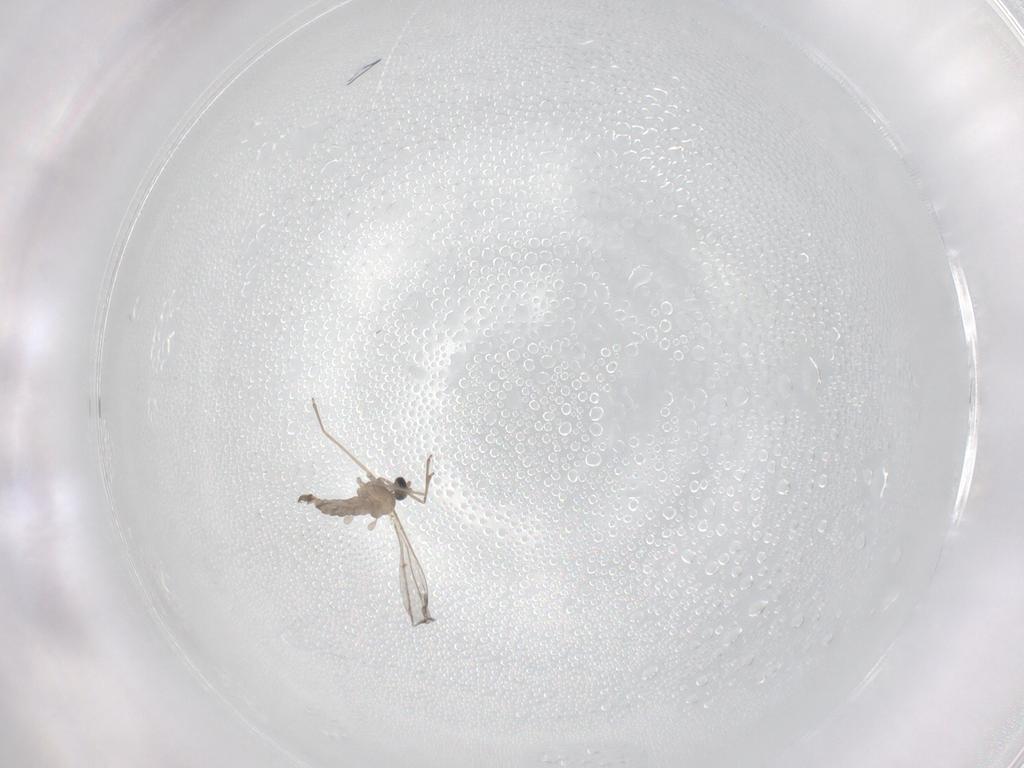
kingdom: Animalia
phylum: Arthropoda
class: Insecta
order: Diptera
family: Cecidomyiidae
